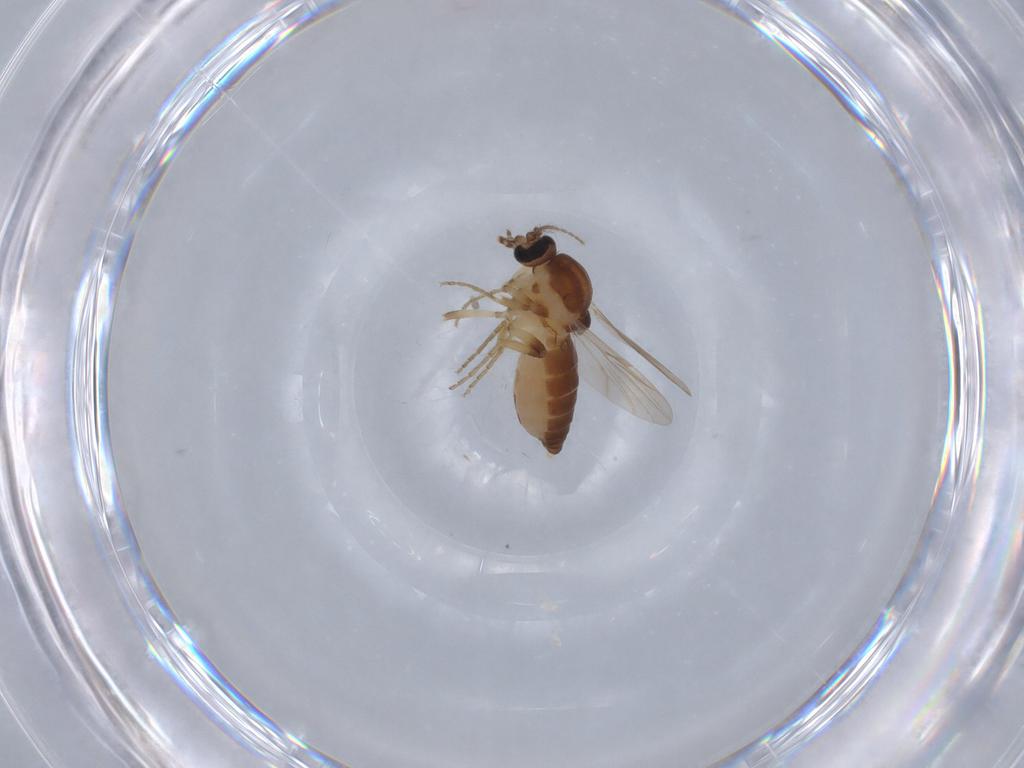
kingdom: Animalia
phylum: Arthropoda
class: Insecta
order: Diptera
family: Ceratopogonidae
